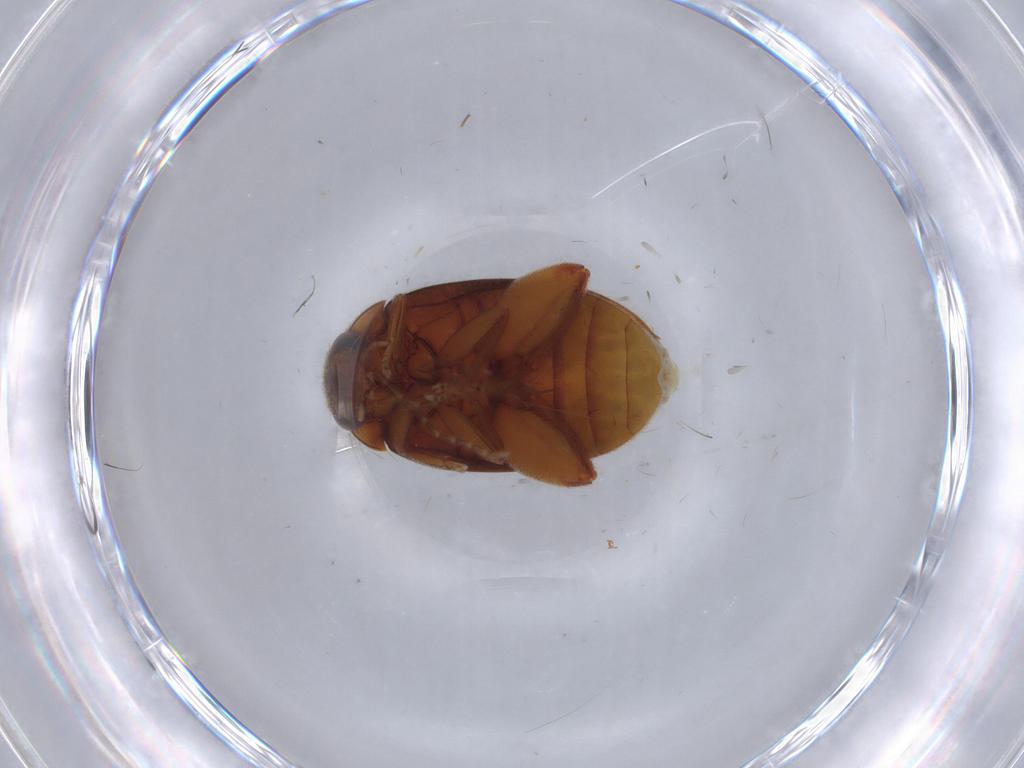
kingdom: Animalia
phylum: Arthropoda
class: Insecta
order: Coleoptera
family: Scirtidae
